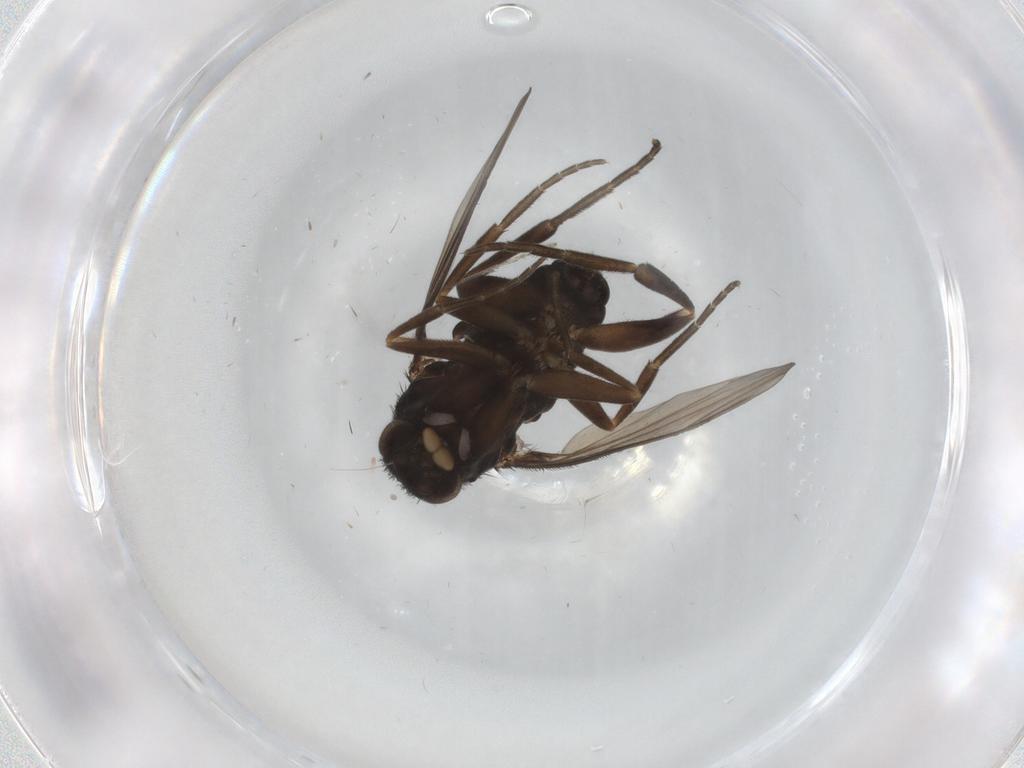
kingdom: Animalia
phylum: Arthropoda
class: Insecta
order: Diptera
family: Phoridae
